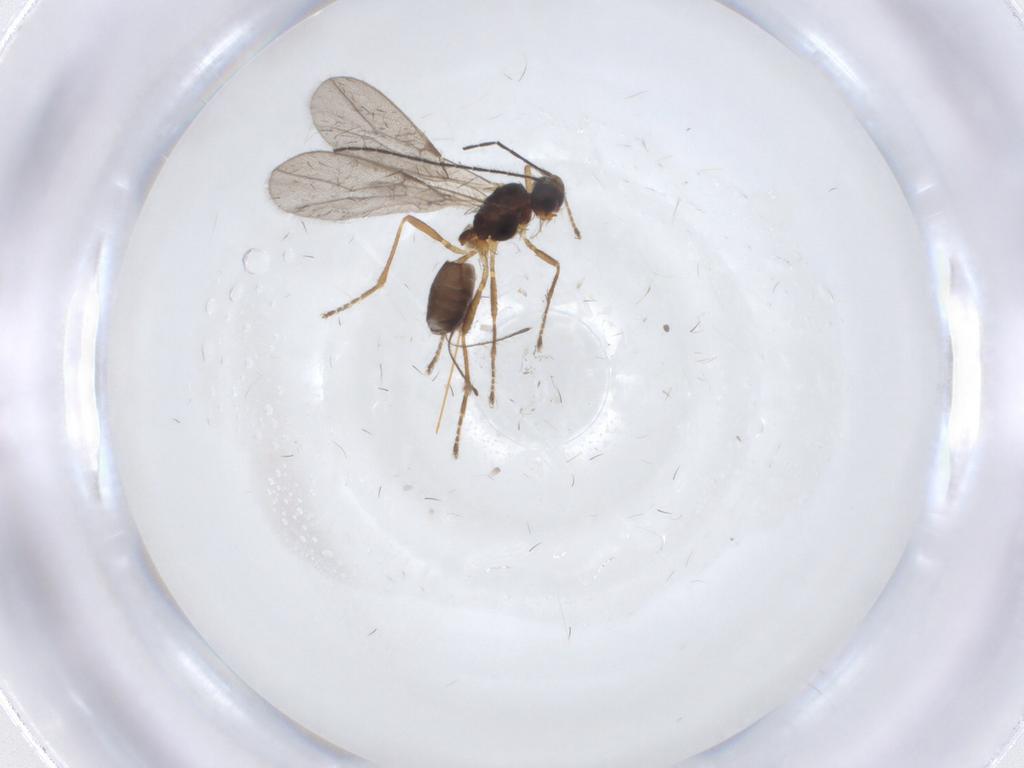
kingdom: Animalia
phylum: Arthropoda
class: Insecta
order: Hymenoptera
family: Braconidae
